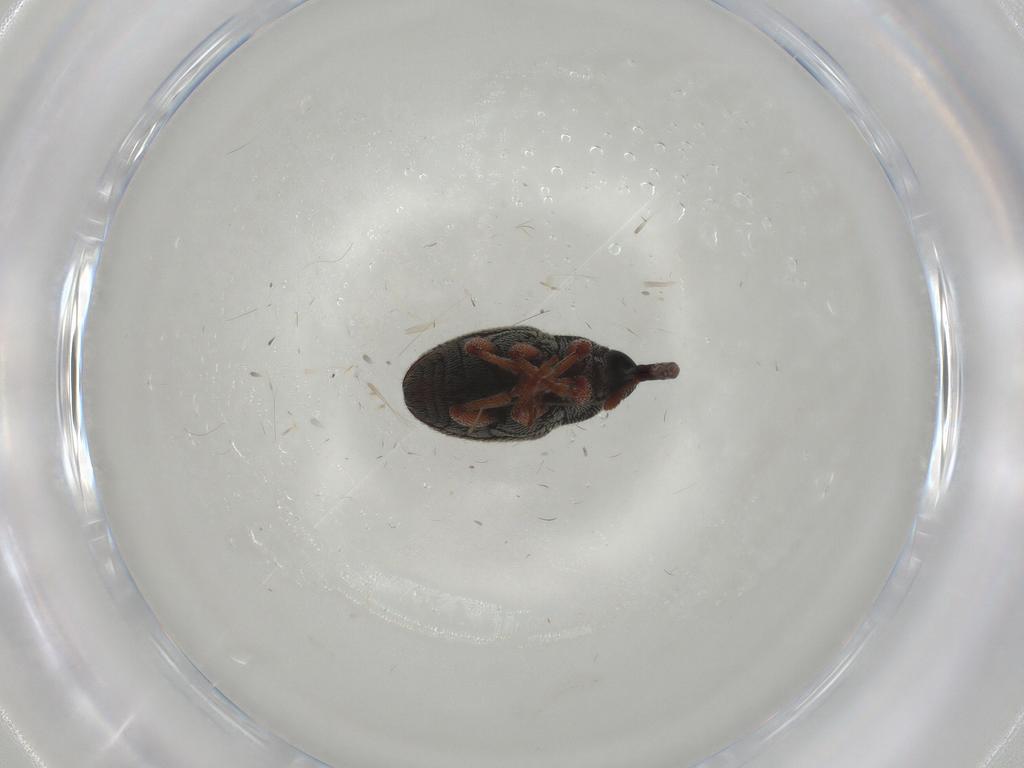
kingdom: Animalia
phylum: Arthropoda
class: Insecta
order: Coleoptera
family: Curculionidae
